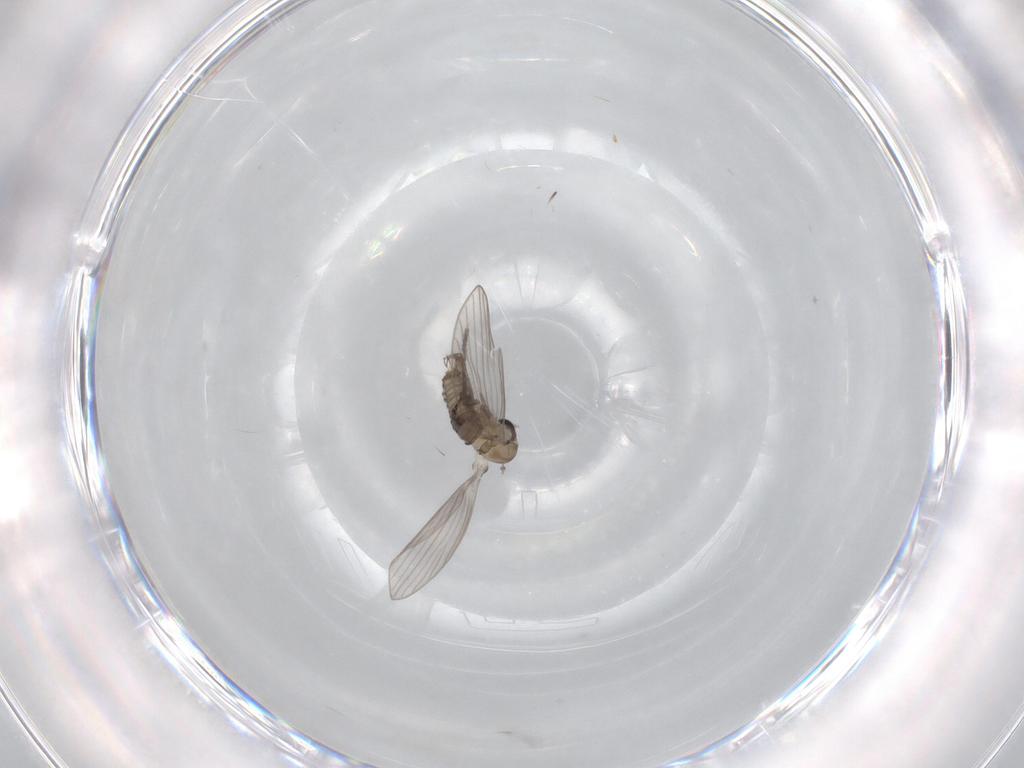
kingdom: Animalia
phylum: Arthropoda
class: Insecta
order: Diptera
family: Psychodidae
